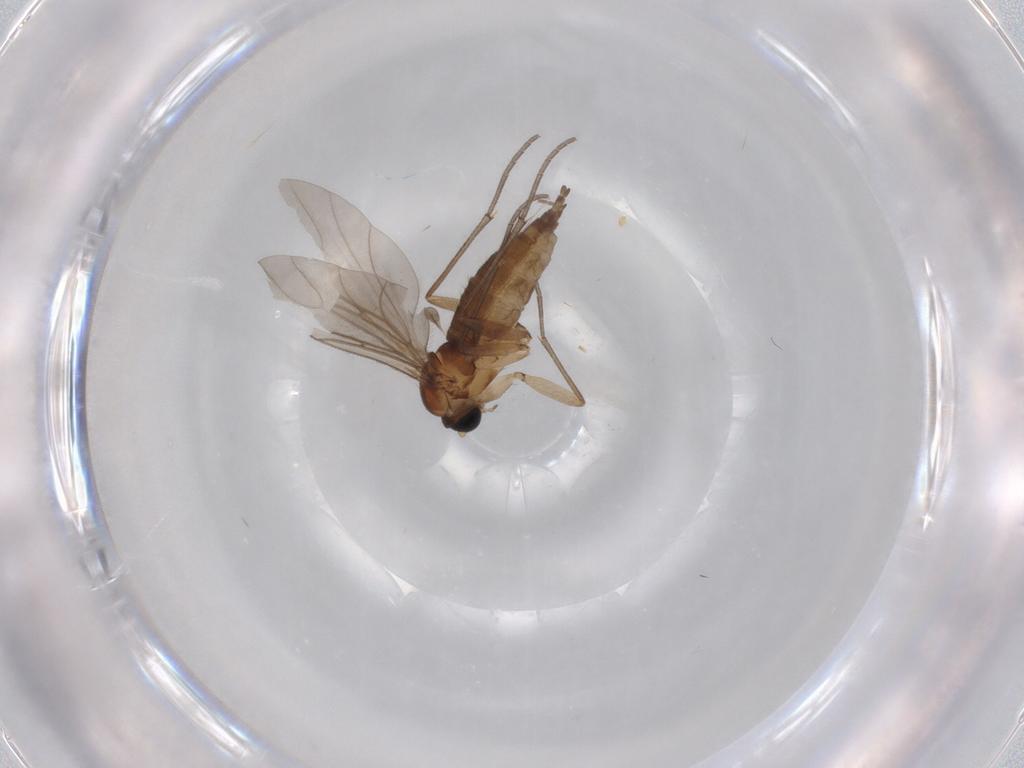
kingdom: Animalia
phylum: Arthropoda
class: Insecta
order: Diptera
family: Sciaridae
